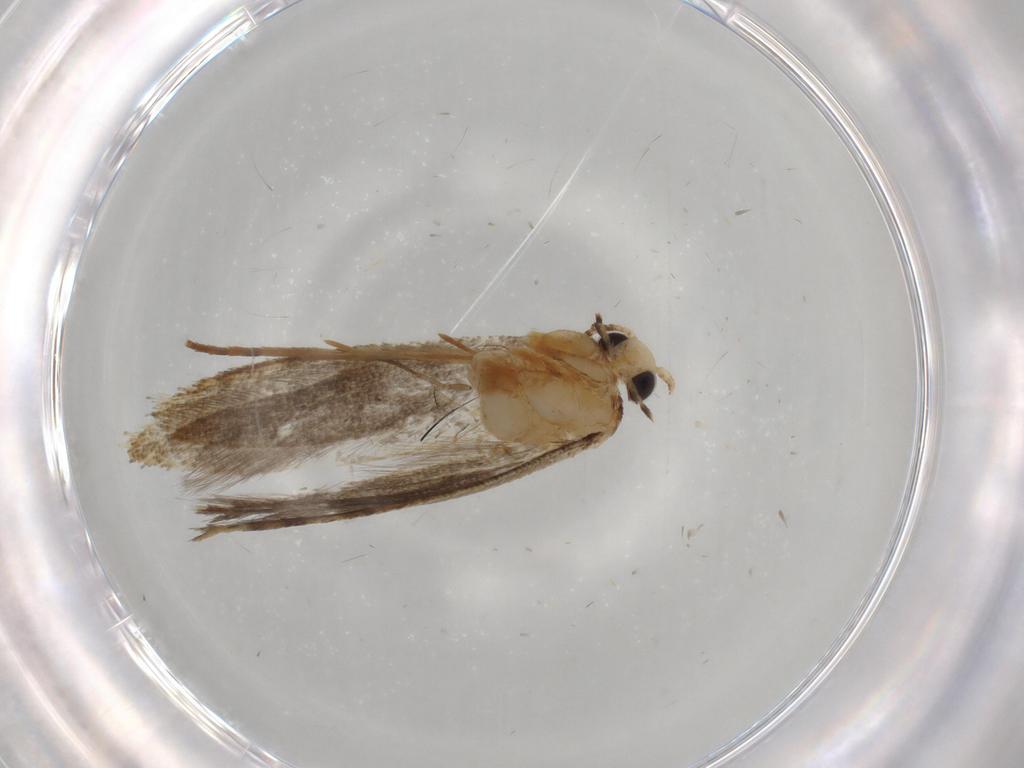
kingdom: Animalia
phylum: Arthropoda
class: Insecta
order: Lepidoptera
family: Tineidae
